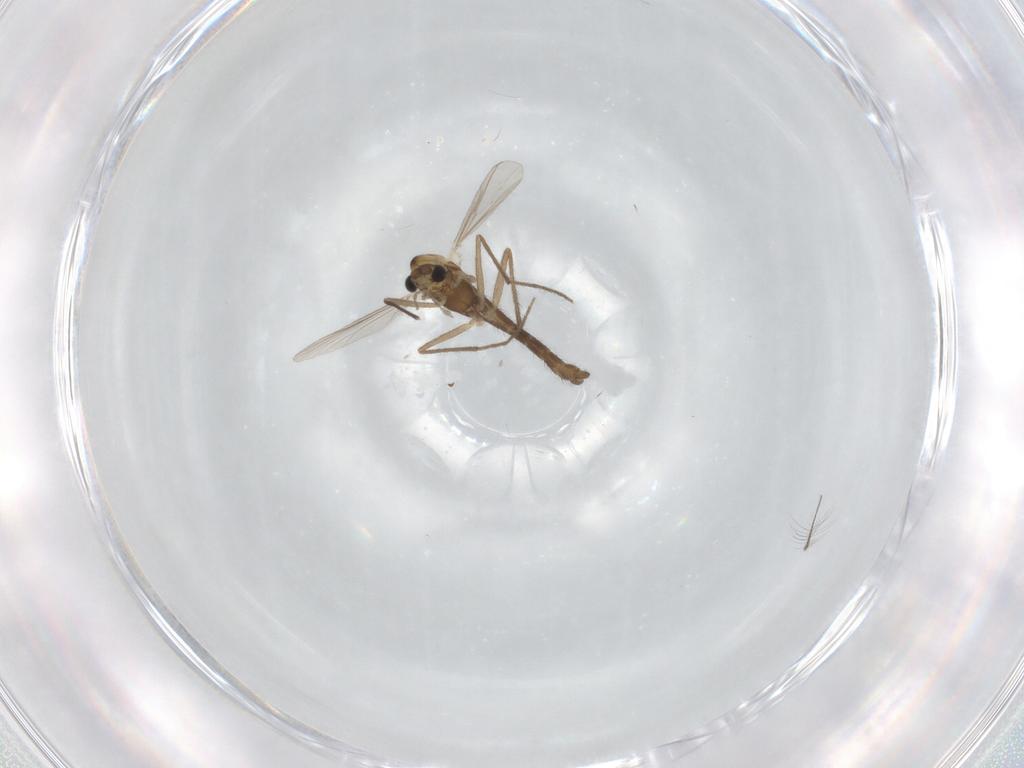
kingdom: Animalia
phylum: Arthropoda
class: Insecta
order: Diptera
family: Chironomidae
